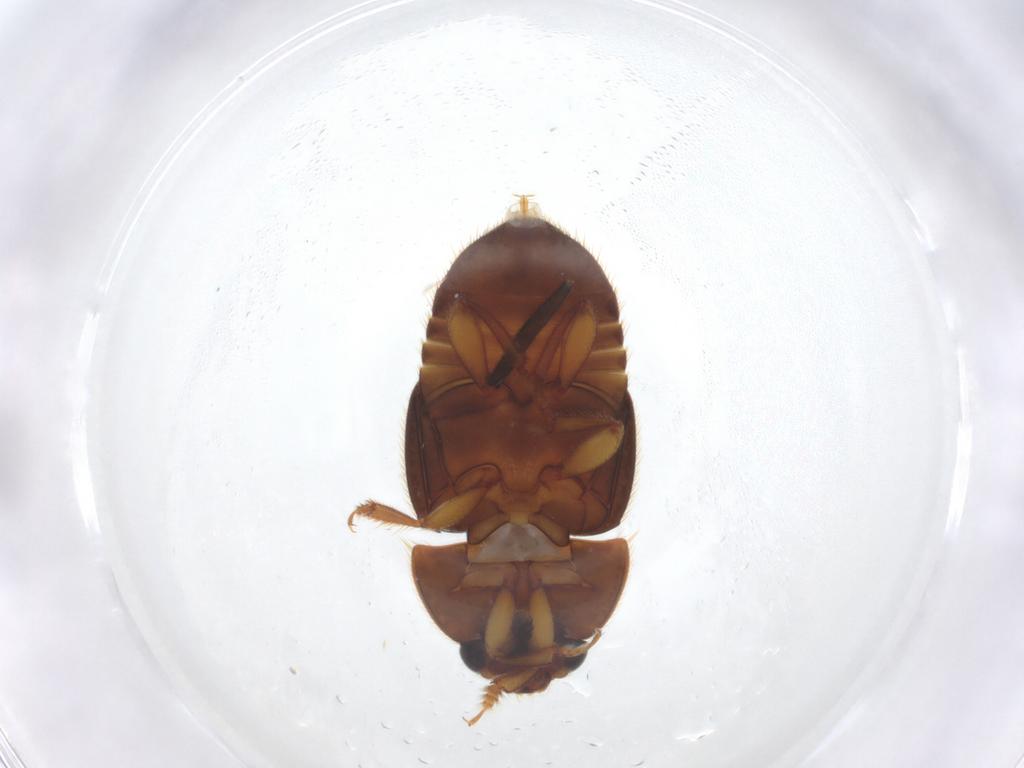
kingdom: Animalia
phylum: Arthropoda
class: Insecta
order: Coleoptera
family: Nitidulidae
